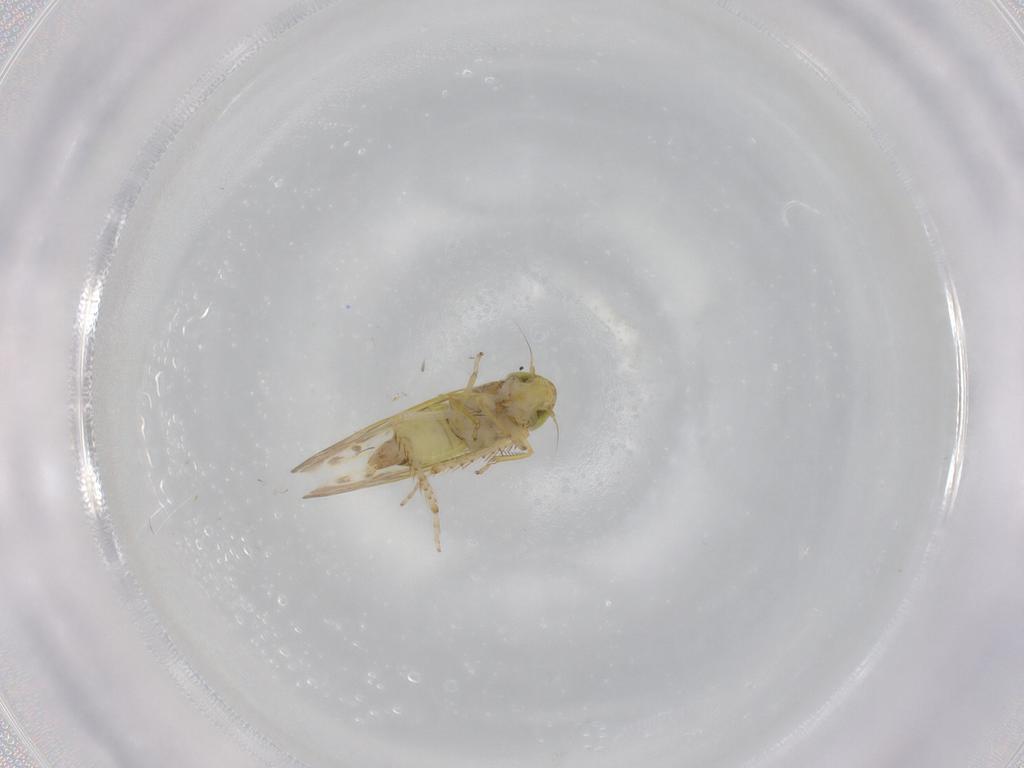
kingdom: Animalia
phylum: Arthropoda
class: Insecta
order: Hemiptera
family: Cicadellidae
